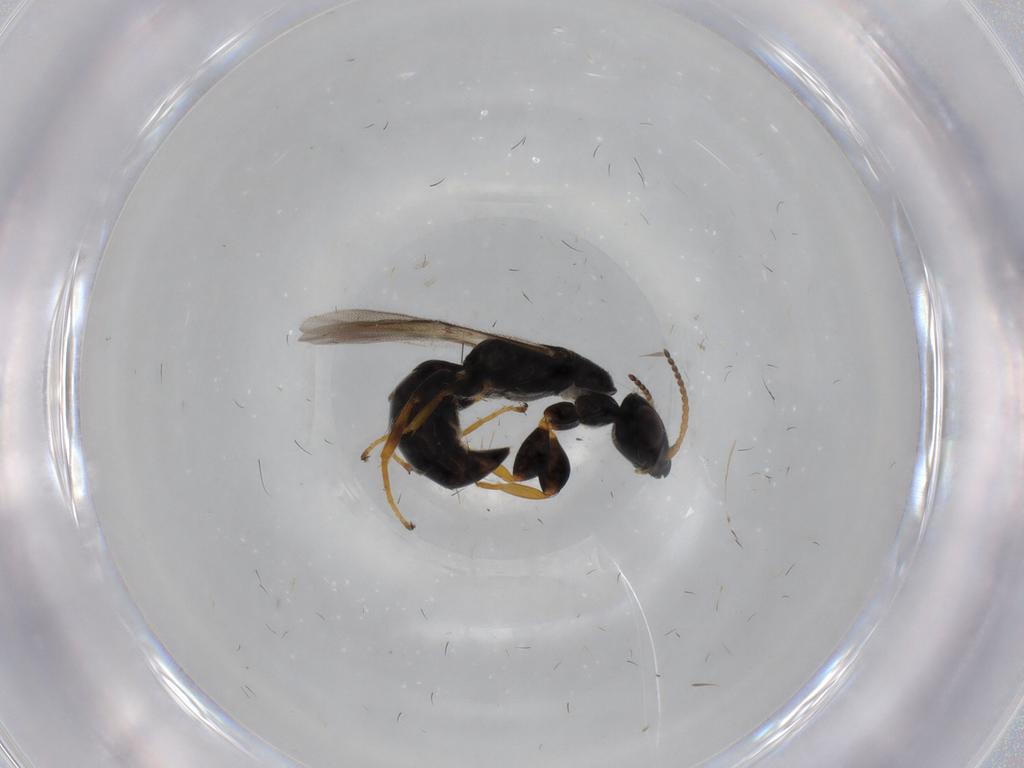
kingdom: Animalia
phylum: Arthropoda
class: Insecta
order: Hymenoptera
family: Bethylidae
